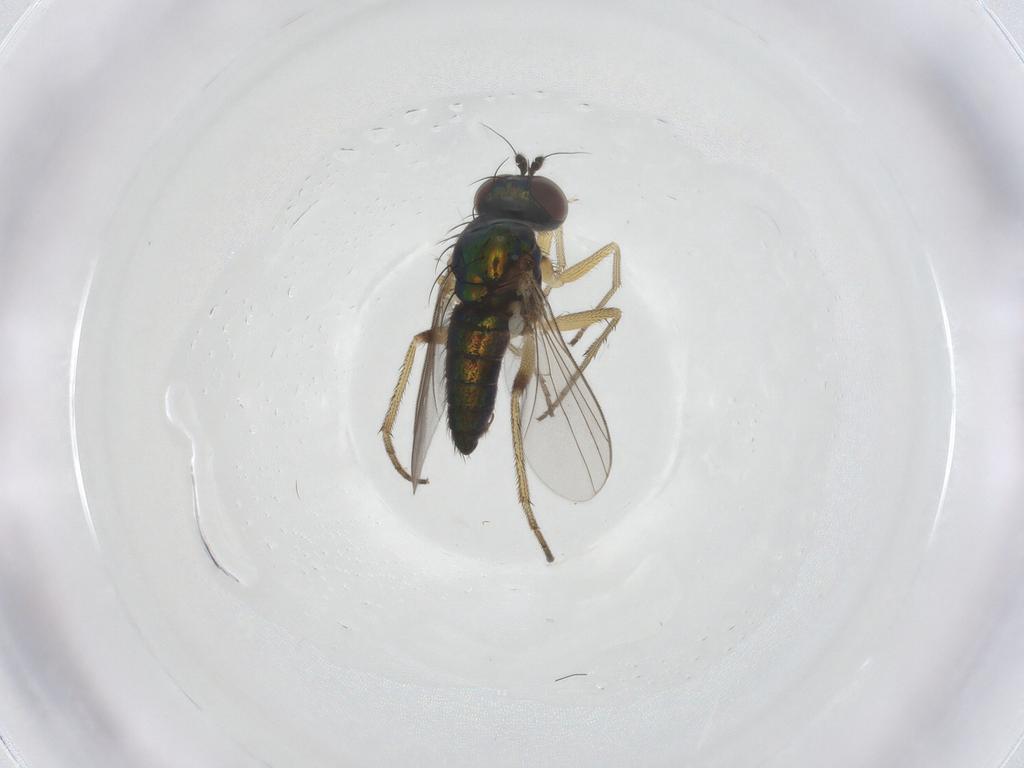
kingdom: Animalia
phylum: Arthropoda
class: Insecta
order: Diptera
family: Dolichopodidae
